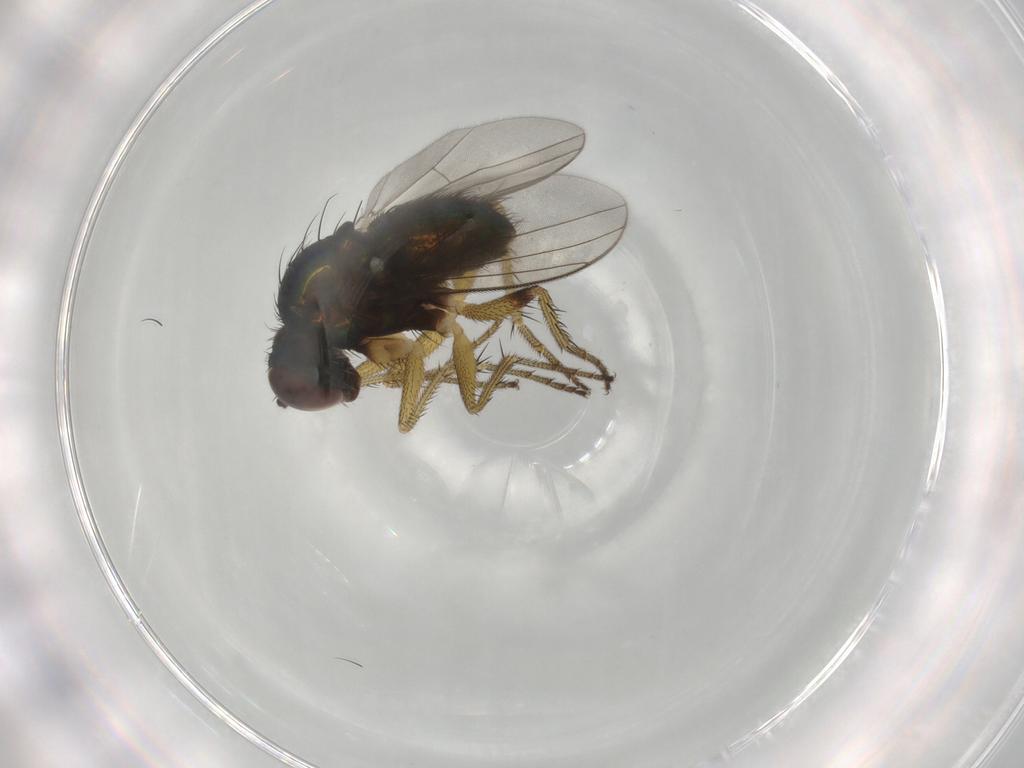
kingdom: Animalia
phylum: Arthropoda
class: Insecta
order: Diptera
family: Dolichopodidae
